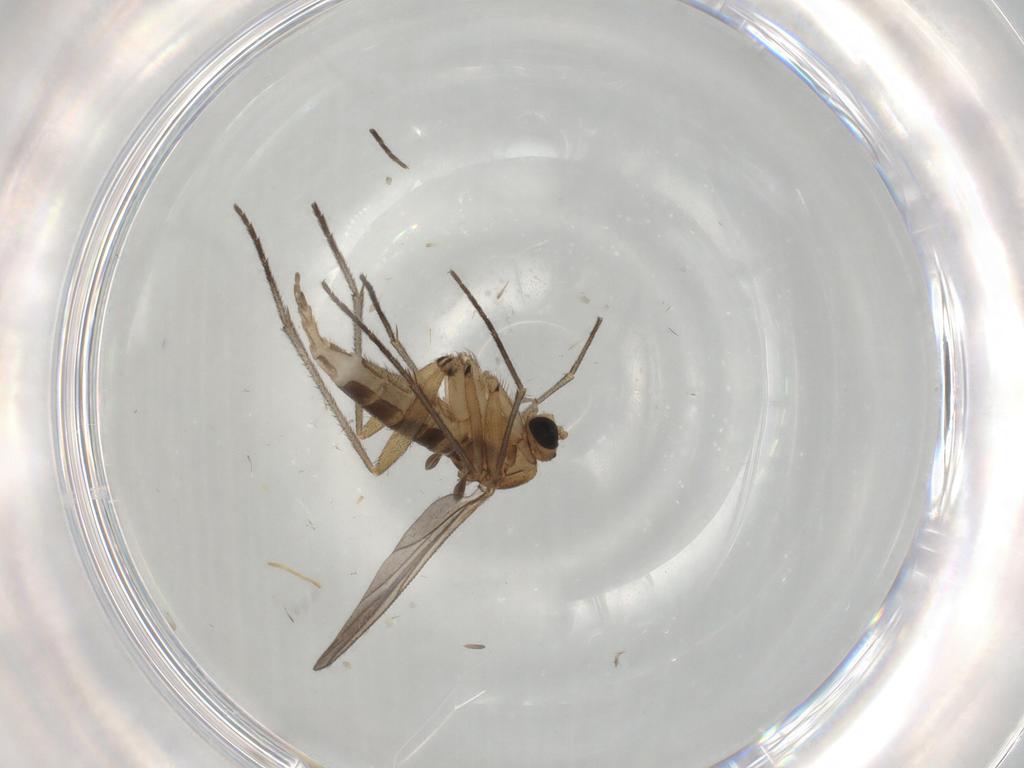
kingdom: Animalia
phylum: Arthropoda
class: Insecta
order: Diptera
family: Sciaridae
